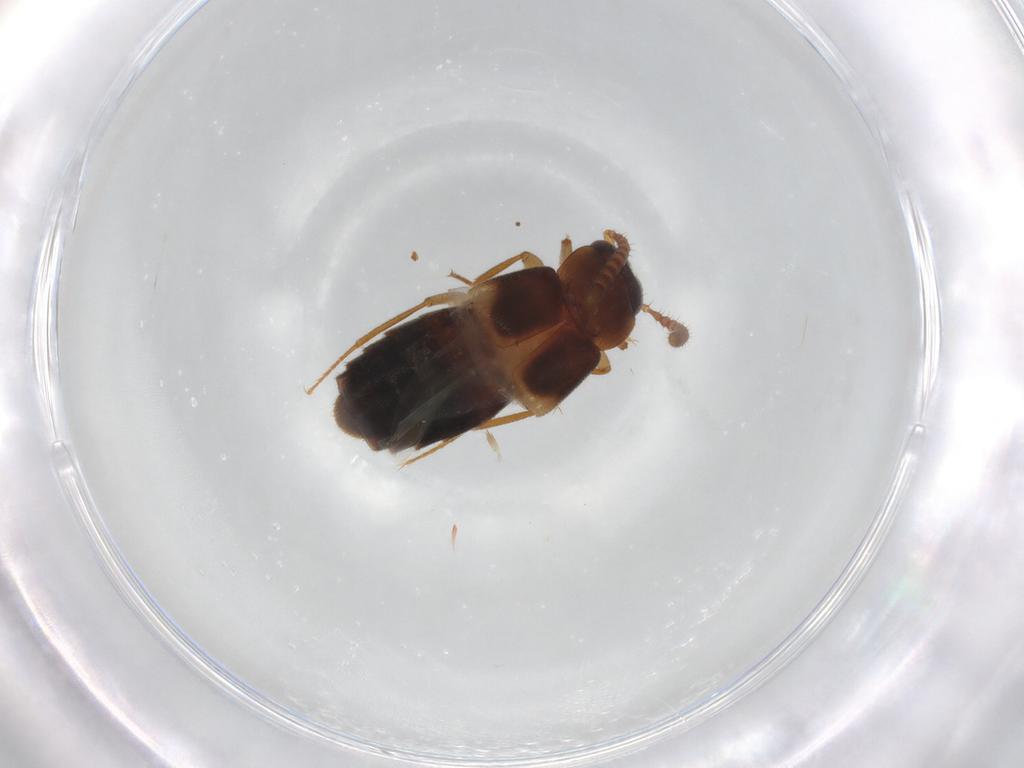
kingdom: Animalia
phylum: Arthropoda
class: Insecta
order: Coleoptera
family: Staphylinidae
